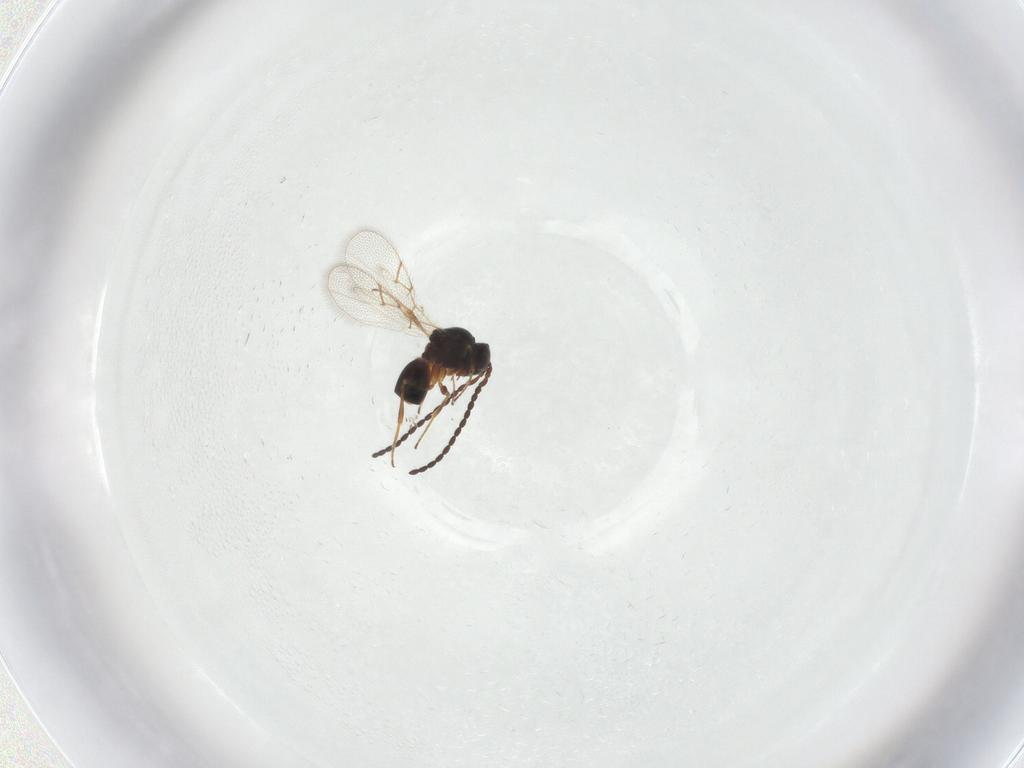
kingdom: Animalia
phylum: Arthropoda
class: Insecta
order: Hymenoptera
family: Figitidae
